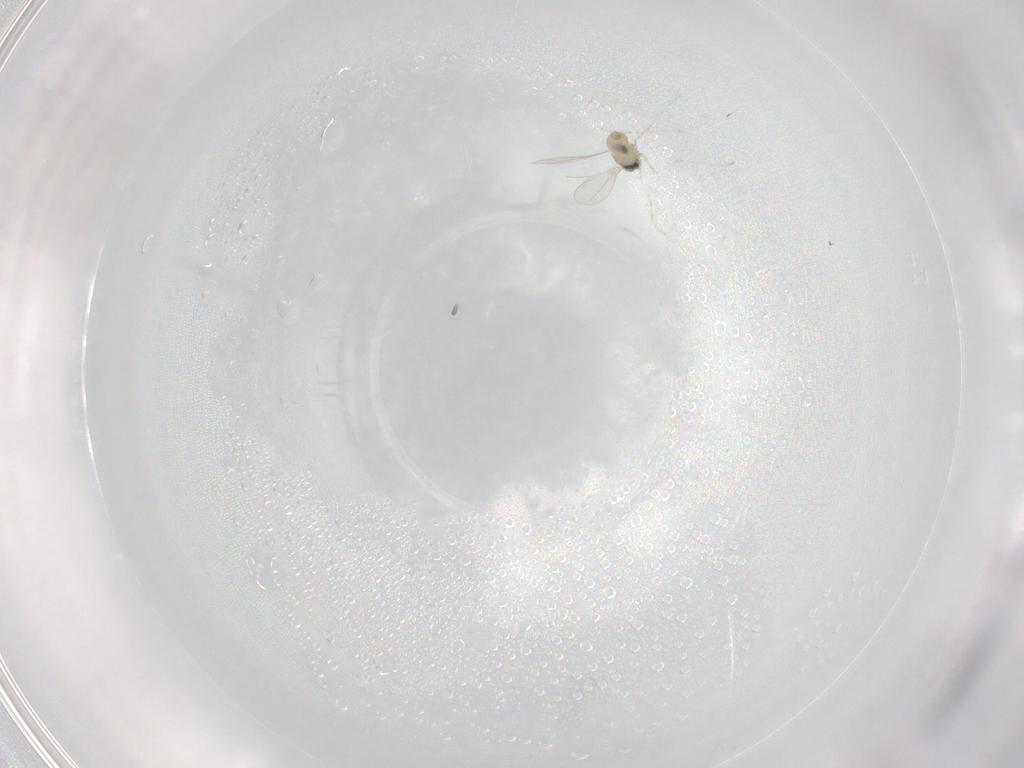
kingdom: Animalia
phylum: Arthropoda
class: Insecta
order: Diptera
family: Cecidomyiidae
